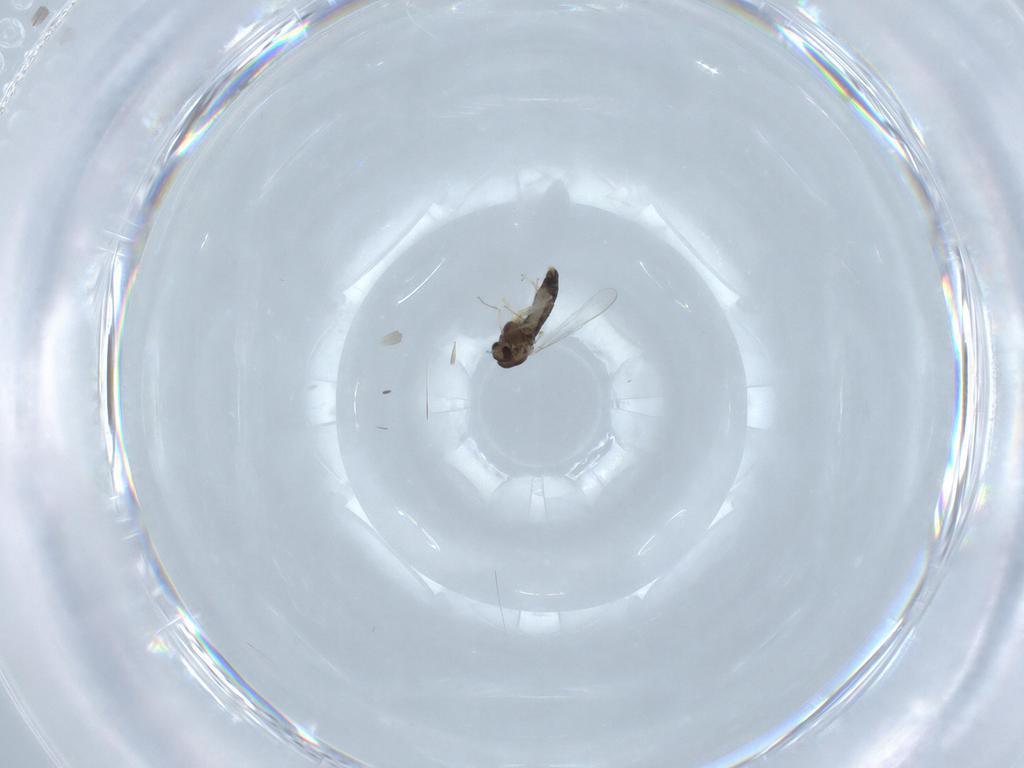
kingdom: Animalia
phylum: Arthropoda
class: Insecta
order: Diptera
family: Chironomidae
